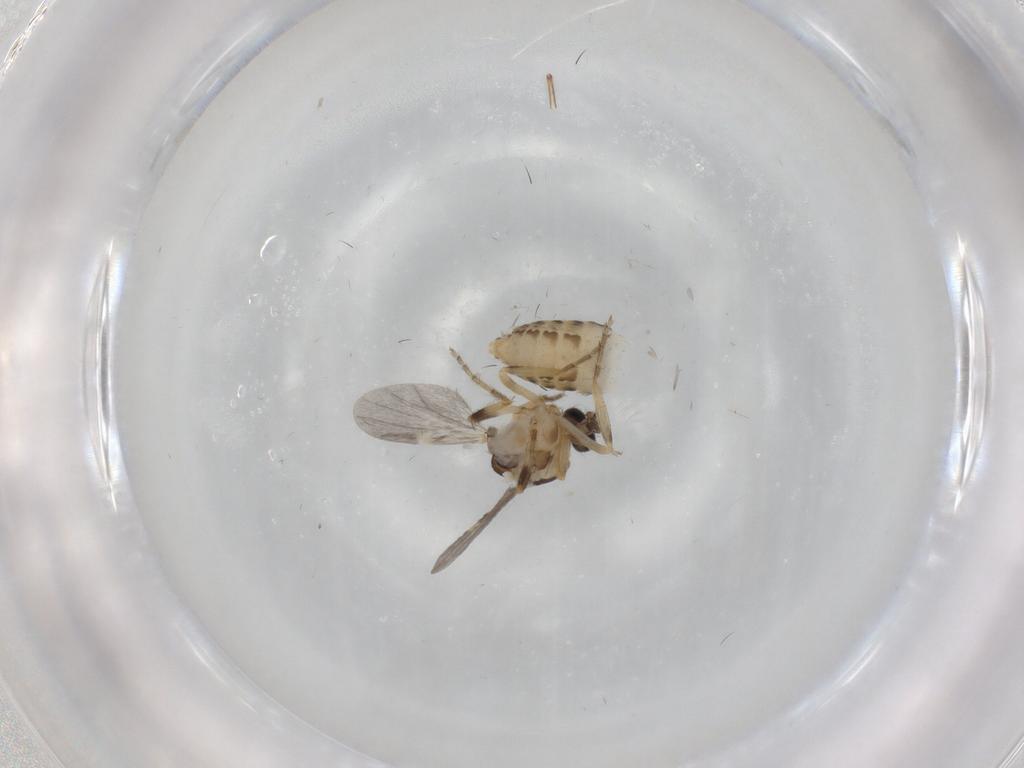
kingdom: Animalia
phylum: Arthropoda
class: Insecta
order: Diptera
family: Ceratopogonidae
